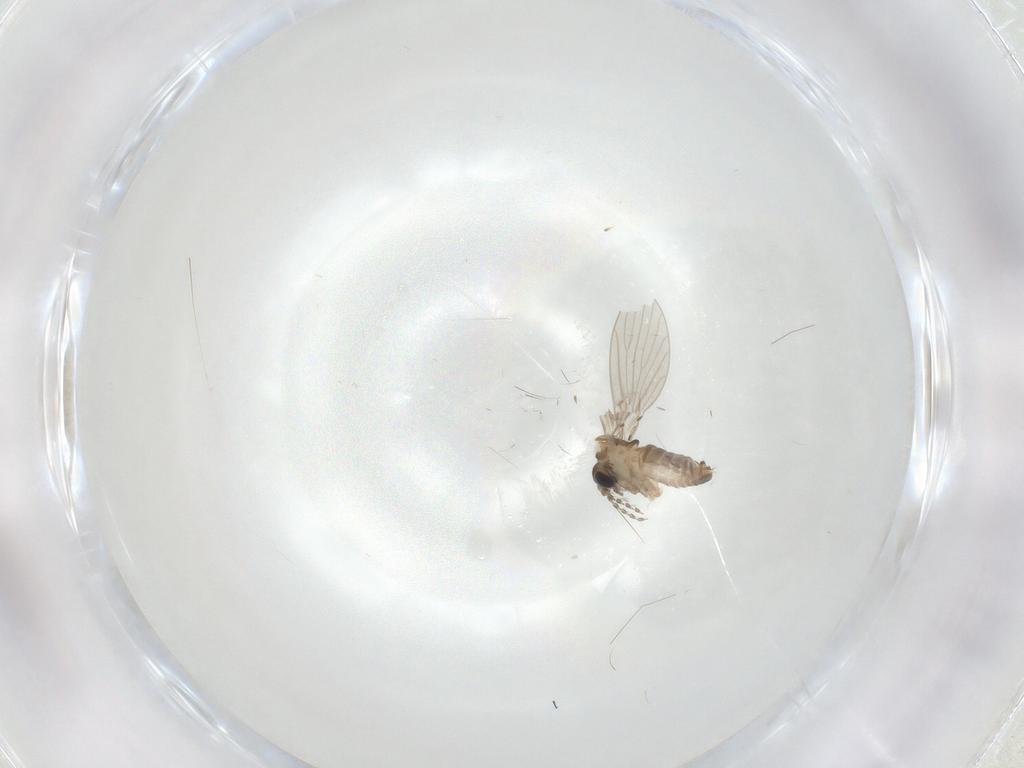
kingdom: Animalia
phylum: Arthropoda
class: Insecta
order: Diptera
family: Psychodidae
